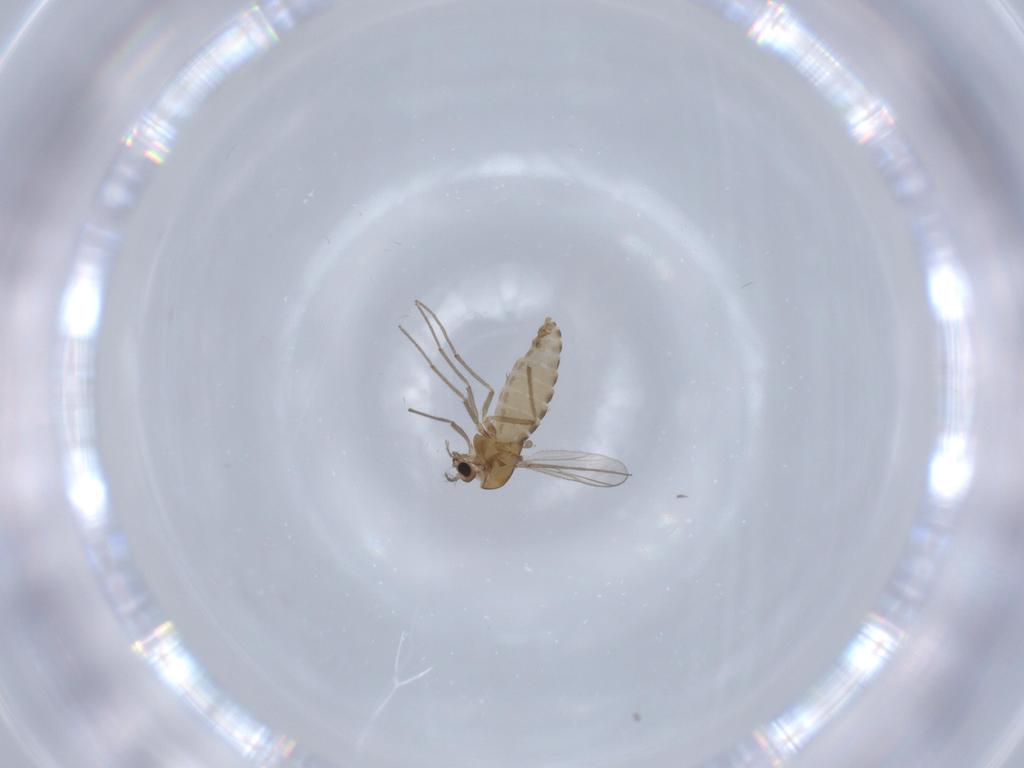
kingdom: Animalia
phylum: Arthropoda
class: Insecta
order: Diptera
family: Chironomidae
